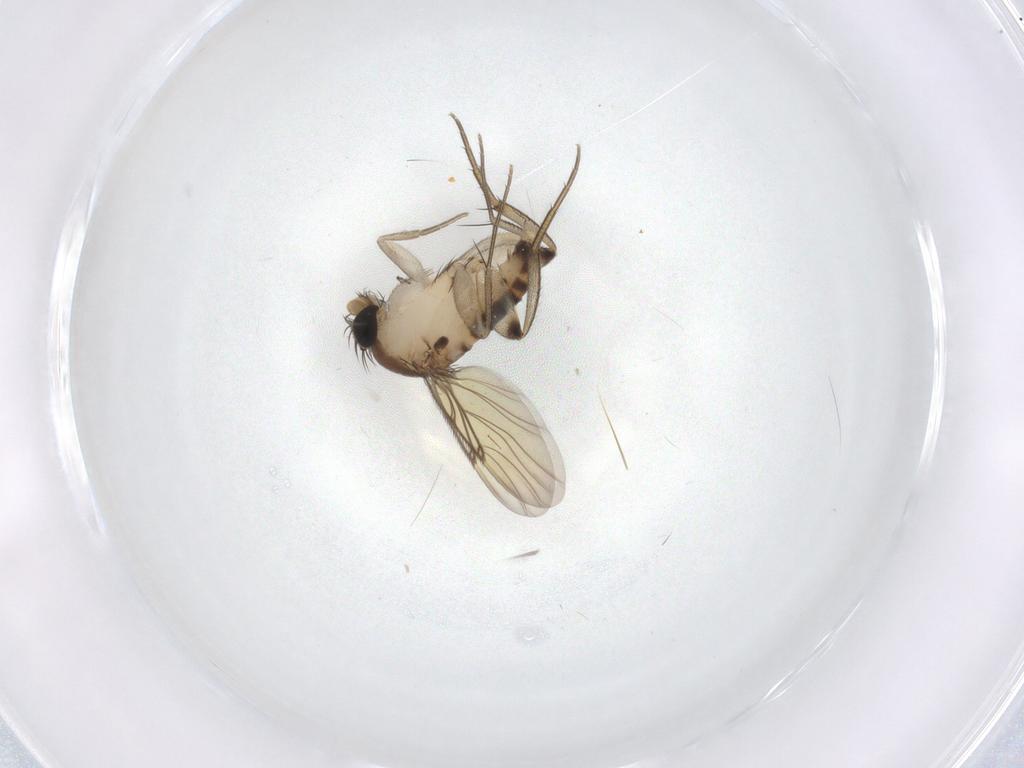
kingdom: Animalia
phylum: Arthropoda
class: Insecta
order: Diptera
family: Phoridae
